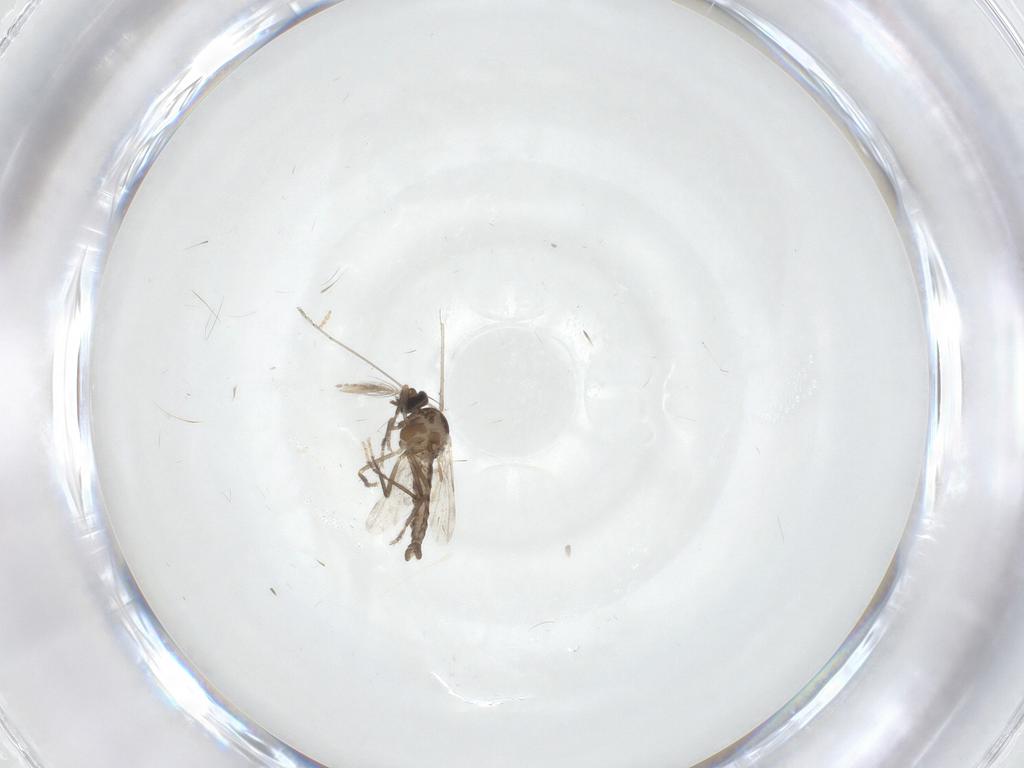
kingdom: Animalia
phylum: Arthropoda
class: Insecta
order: Diptera
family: Ceratopogonidae
